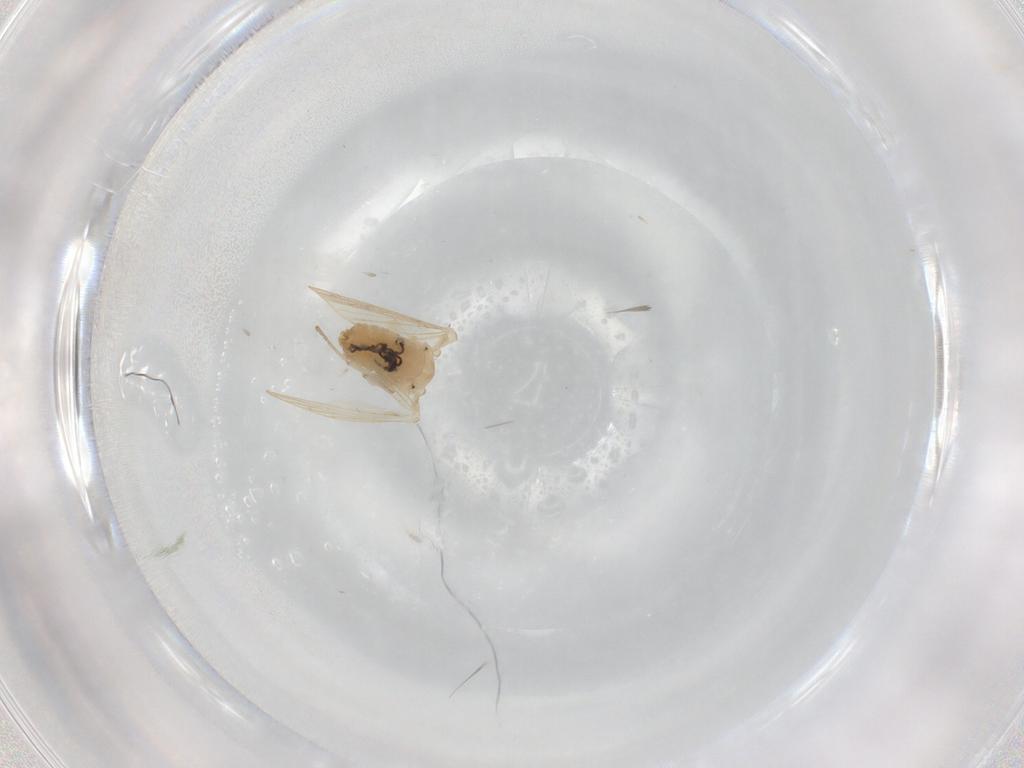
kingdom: Animalia
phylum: Arthropoda
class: Insecta
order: Diptera
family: Psychodidae
